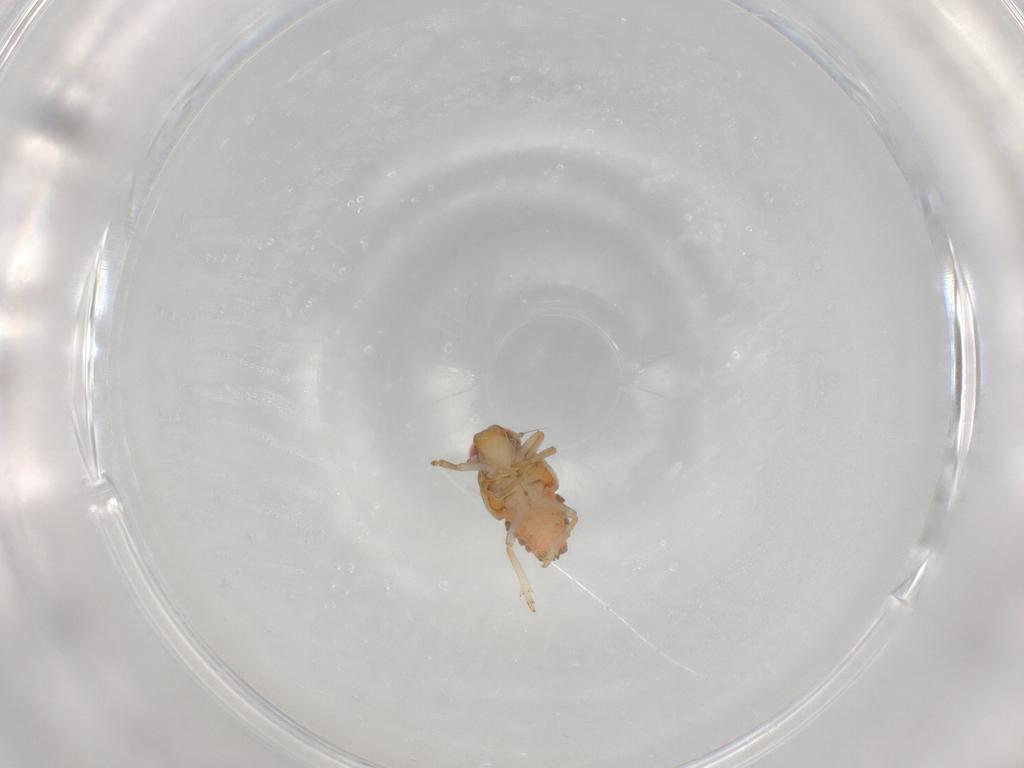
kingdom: Animalia
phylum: Arthropoda
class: Insecta
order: Hemiptera
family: Issidae
